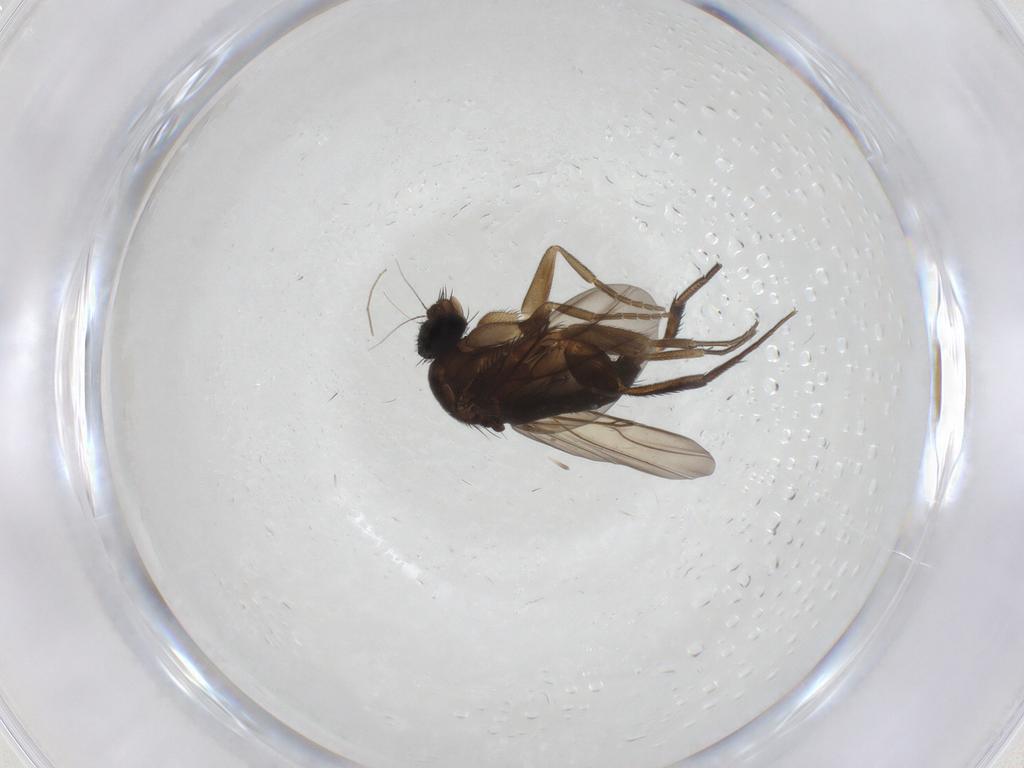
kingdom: Animalia
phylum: Arthropoda
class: Insecta
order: Diptera
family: Phoridae
